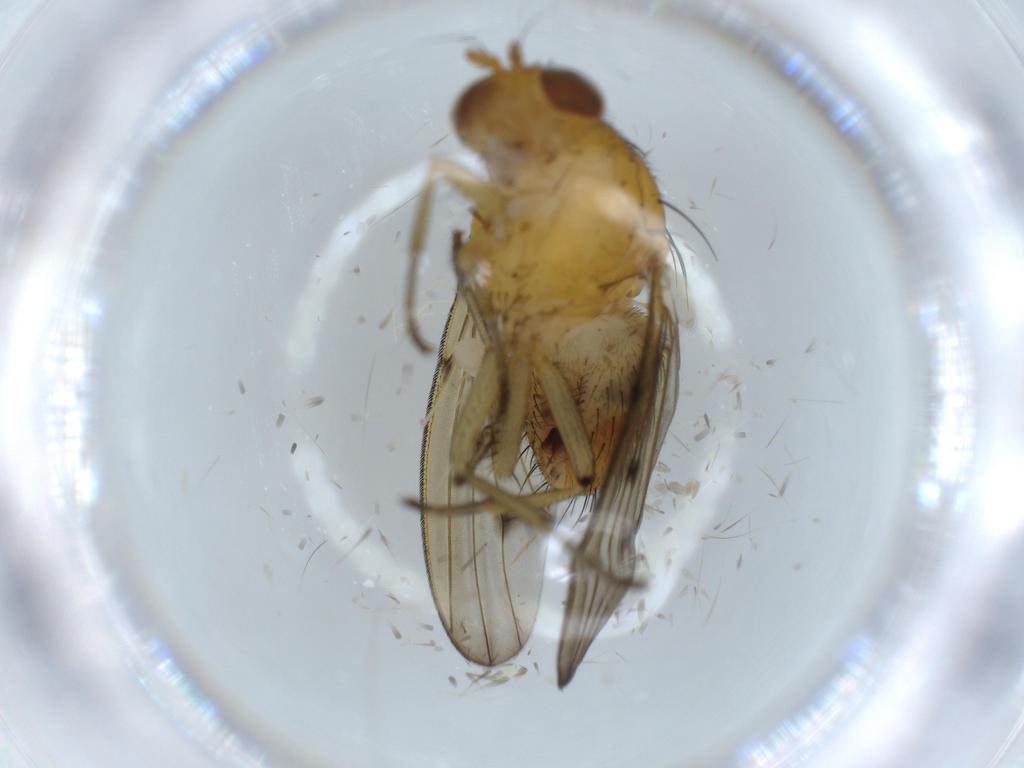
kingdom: Animalia
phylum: Arthropoda
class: Insecta
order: Diptera
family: Cecidomyiidae
